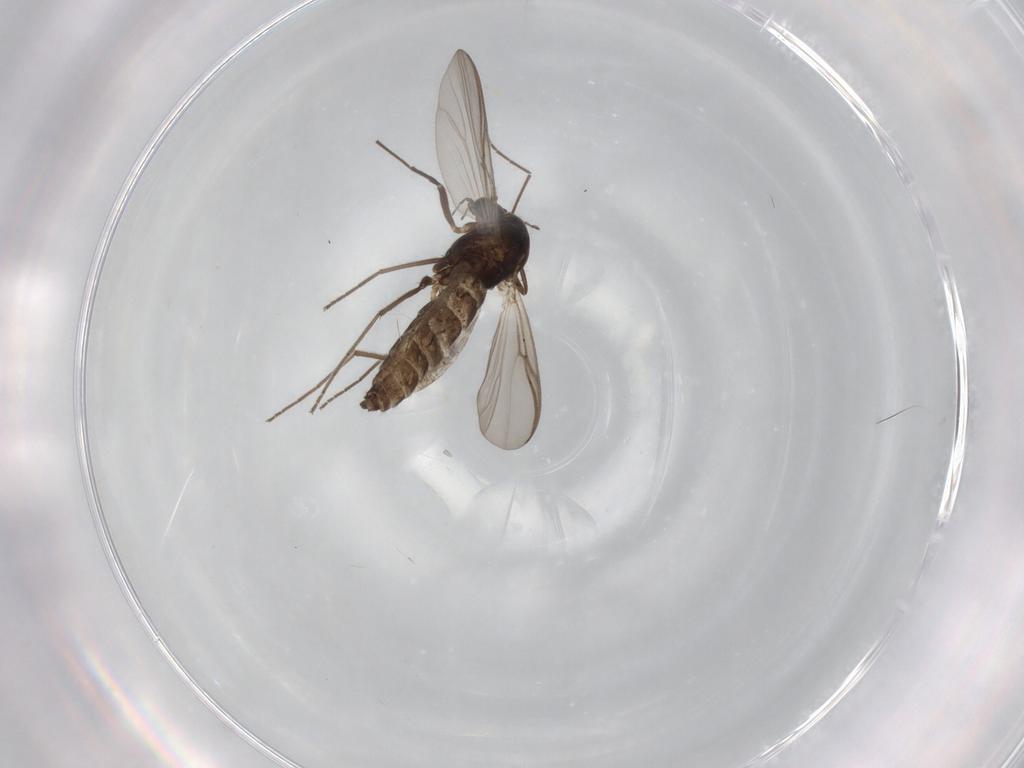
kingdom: Animalia
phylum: Arthropoda
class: Insecta
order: Diptera
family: Chironomidae
